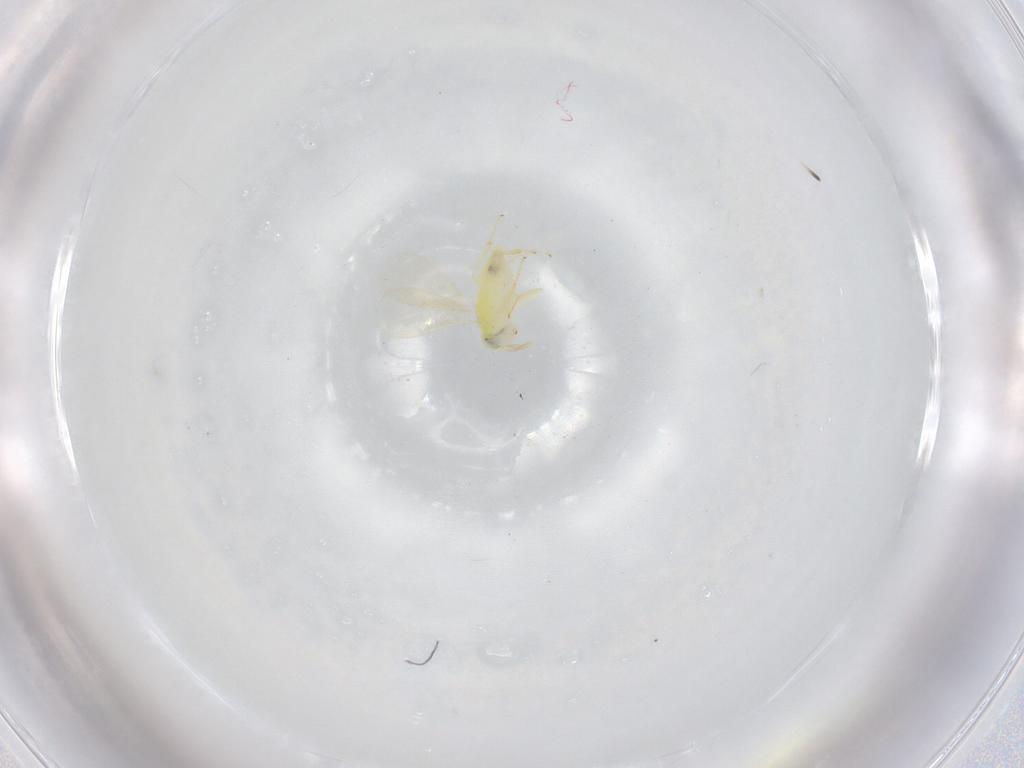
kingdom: Animalia
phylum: Arthropoda
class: Insecta
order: Hymenoptera
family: Aphelinidae
